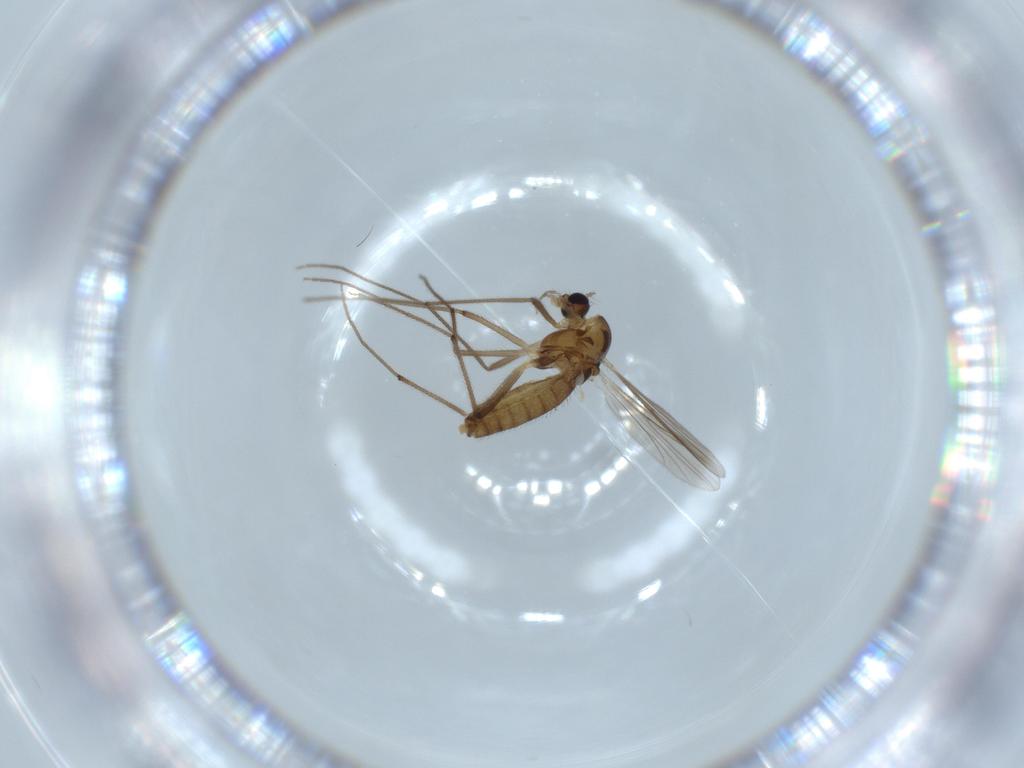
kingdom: Animalia
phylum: Arthropoda
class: Insecta
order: Diptera
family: Chironomidae
